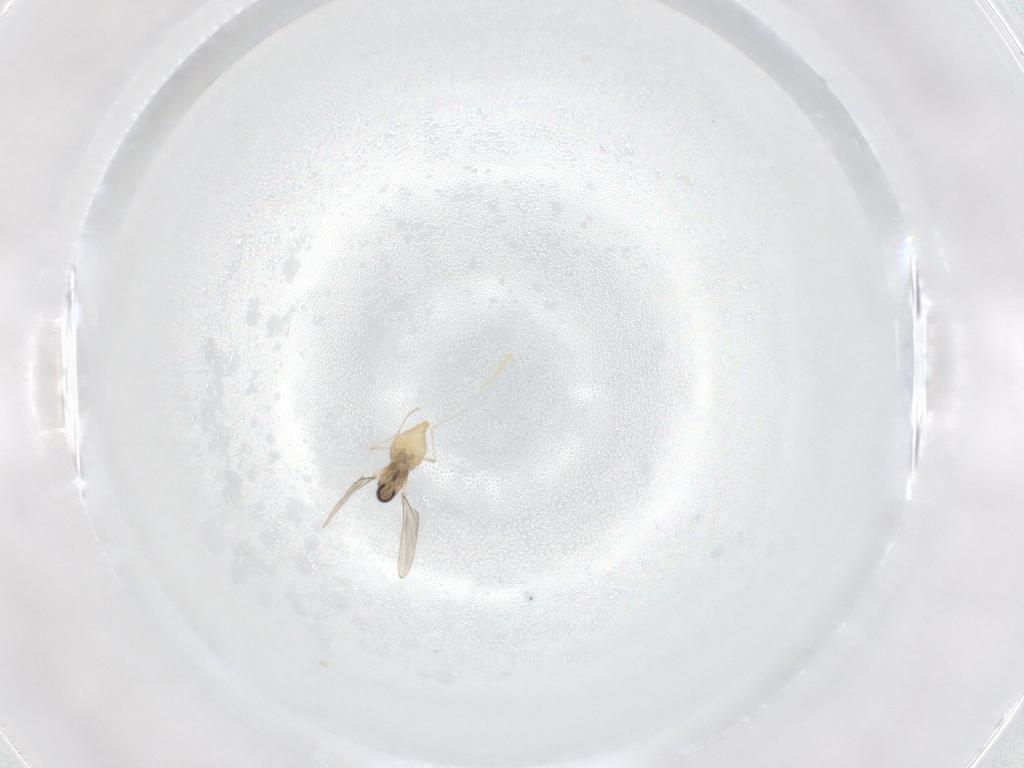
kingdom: Animalia
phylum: Arthropoda
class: Insecta
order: Diptera
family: Cecidomyiidae
